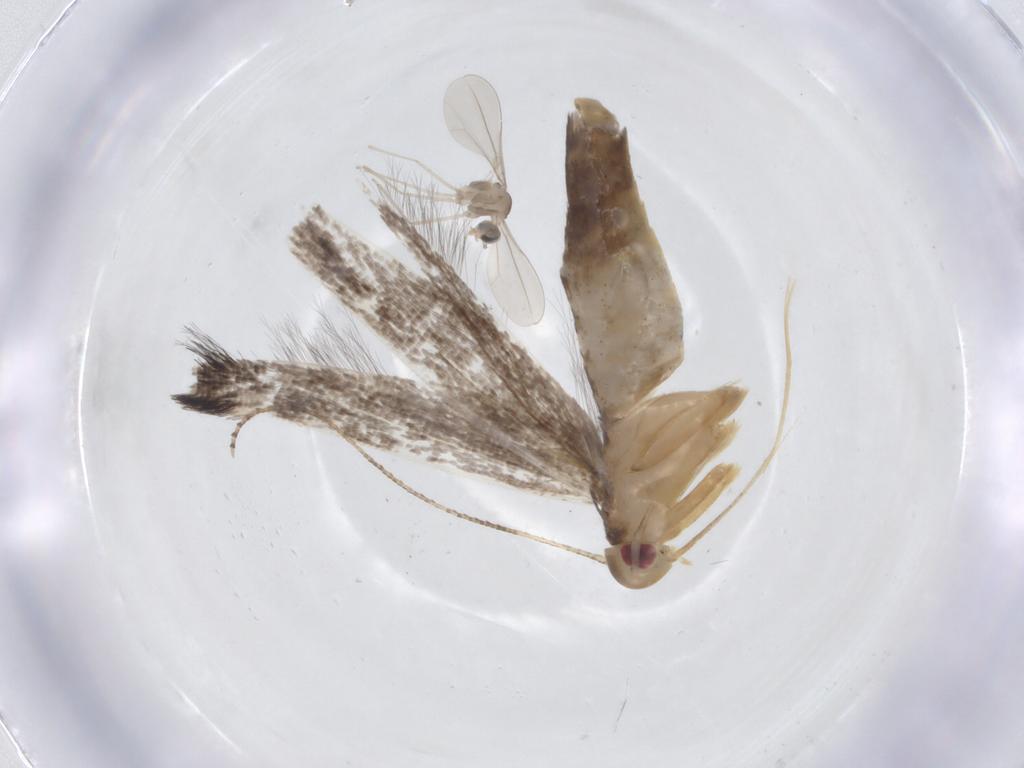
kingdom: Animalia
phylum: Arthropoda
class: Insecta
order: Lepidoptera
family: Cosmopterigidae
